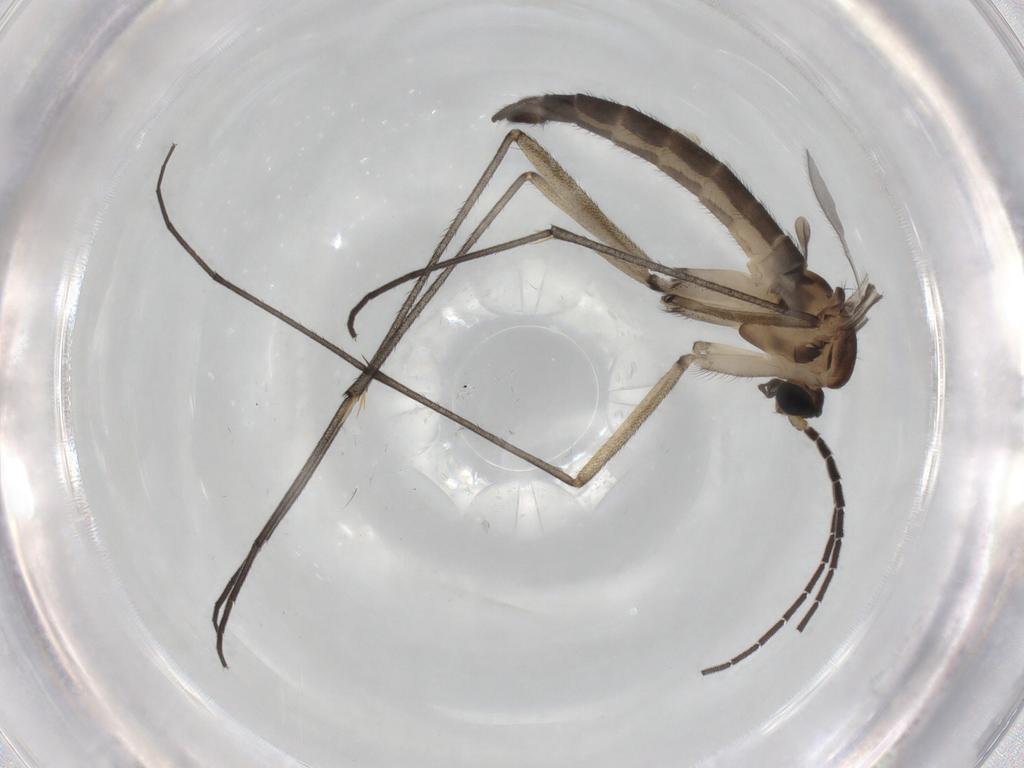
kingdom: Animalia
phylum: Arthropoda
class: Insecta
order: Diptera
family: Sciaridae
